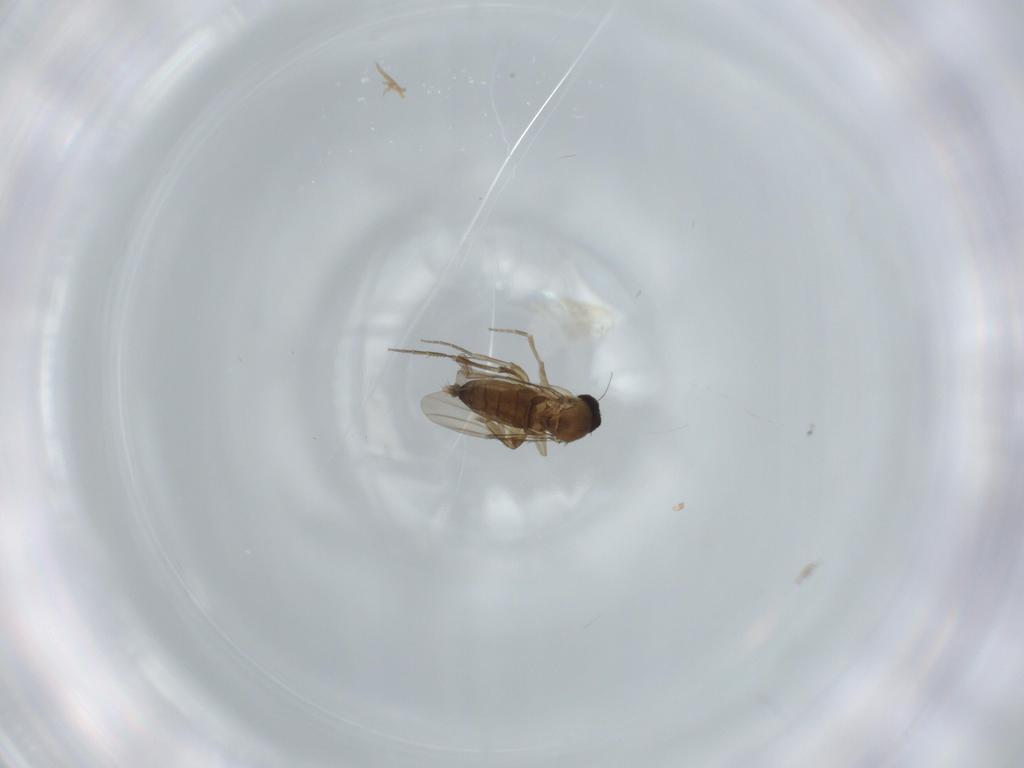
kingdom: Animalia
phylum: Arthropoda
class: Insecta
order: Diptera
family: Phoridae
